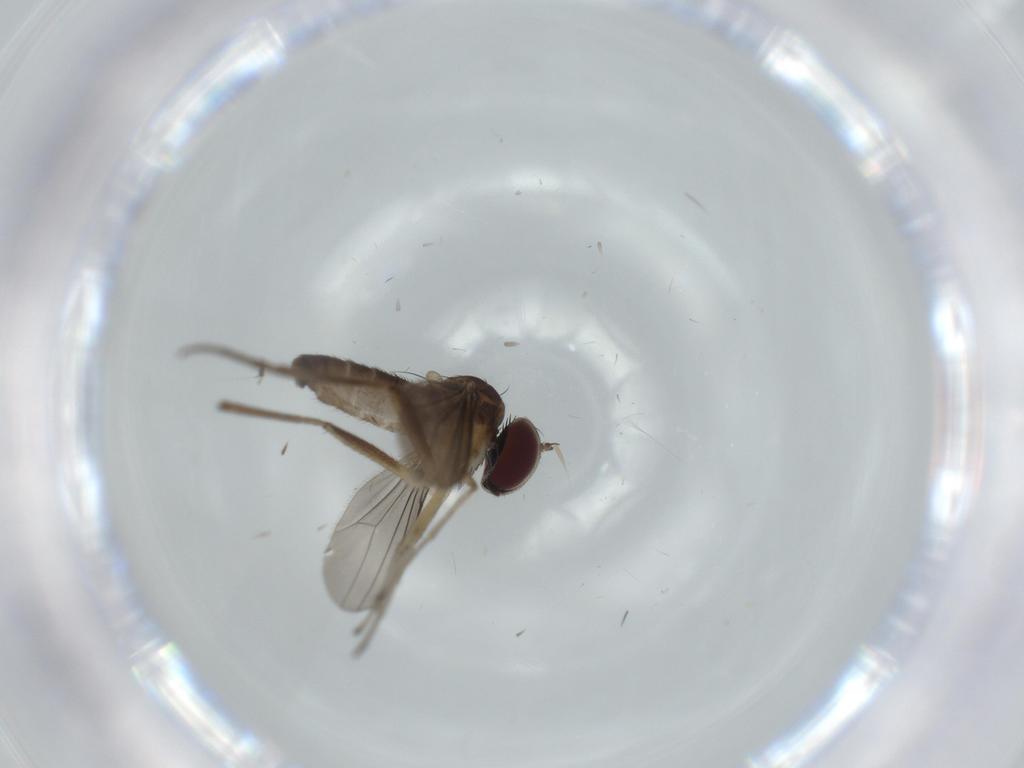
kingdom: Animalia
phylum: Arthropoda
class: Insecta
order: Diptera
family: Dolichopodidae
